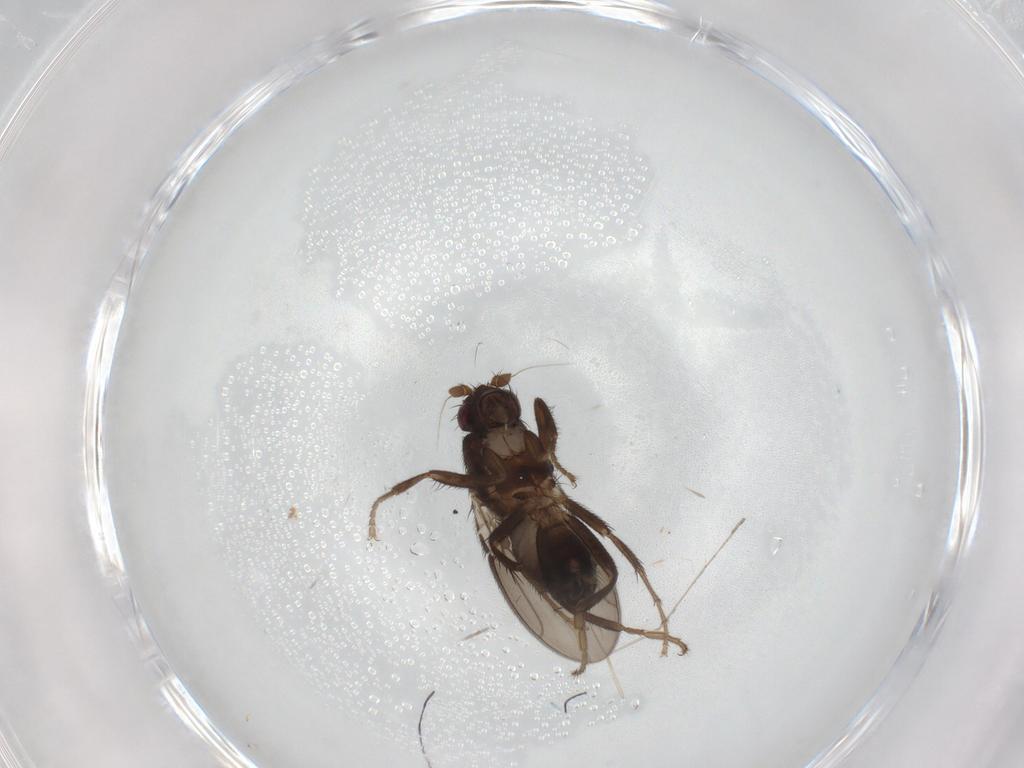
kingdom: Animalia
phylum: Arthropoda
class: Insecta
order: Diptera
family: Sphaeroceridae
